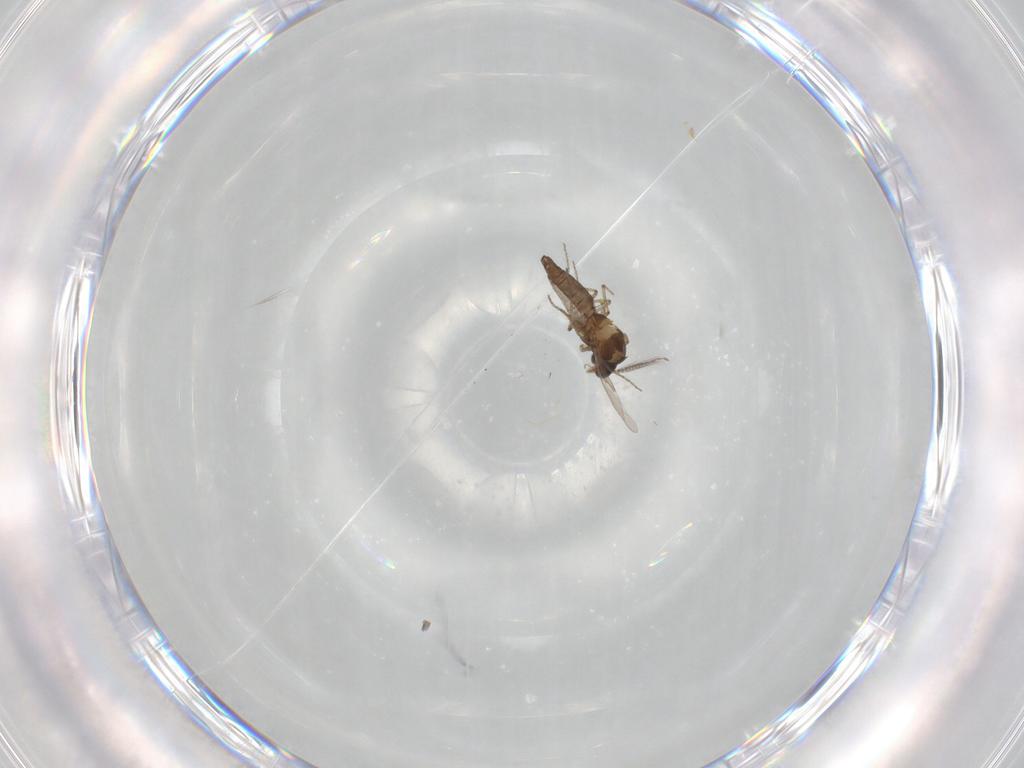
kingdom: Animalia
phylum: Arthropoda
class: Insecta
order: Diptera
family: Ceratopogonidae
